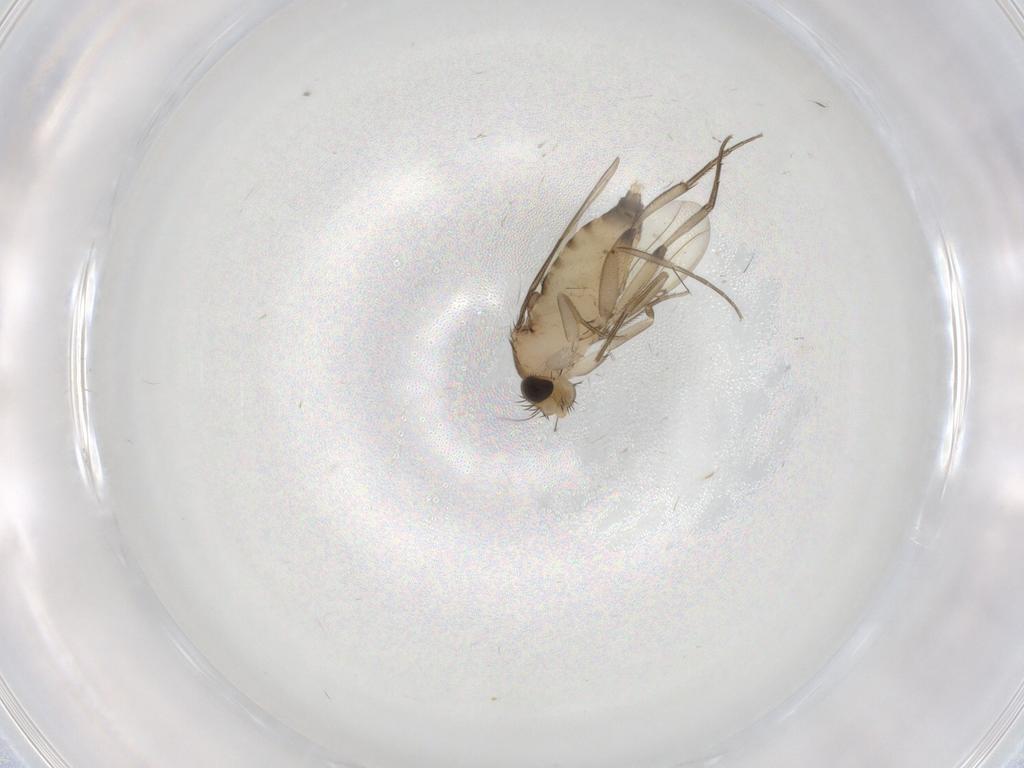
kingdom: Animalia
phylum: Arthropoda
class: Insecta
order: Diptera
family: Phoridae
